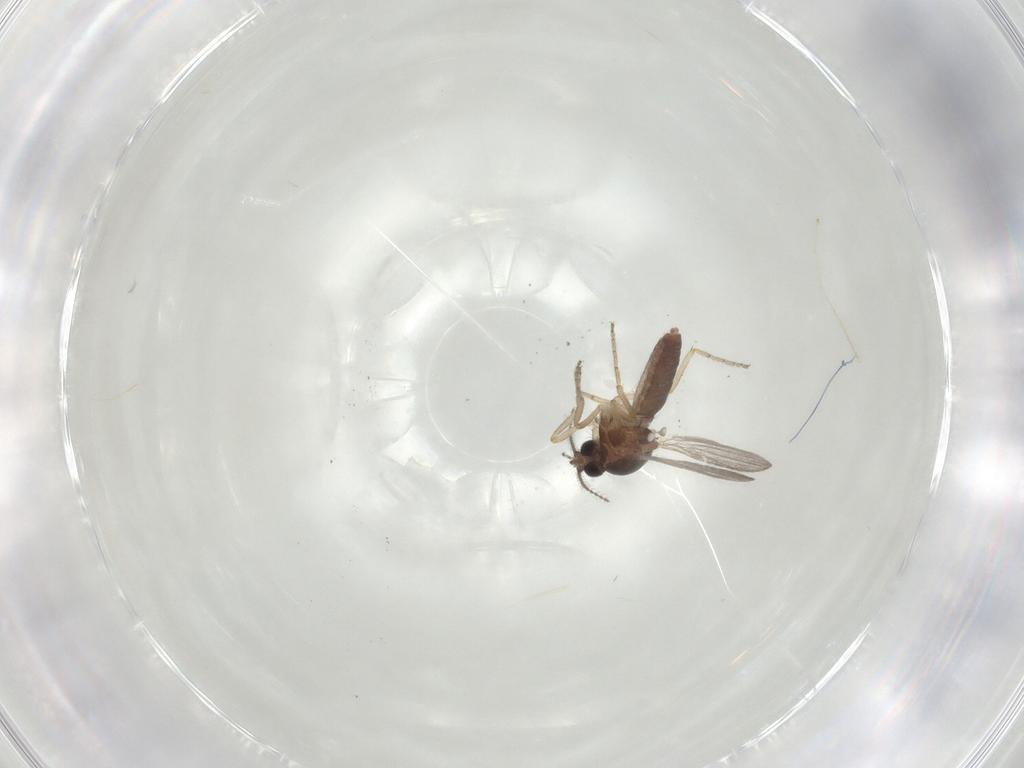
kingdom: Animalia
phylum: Arthropoda
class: Insecta
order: Diptera
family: Ceratopogonidae
